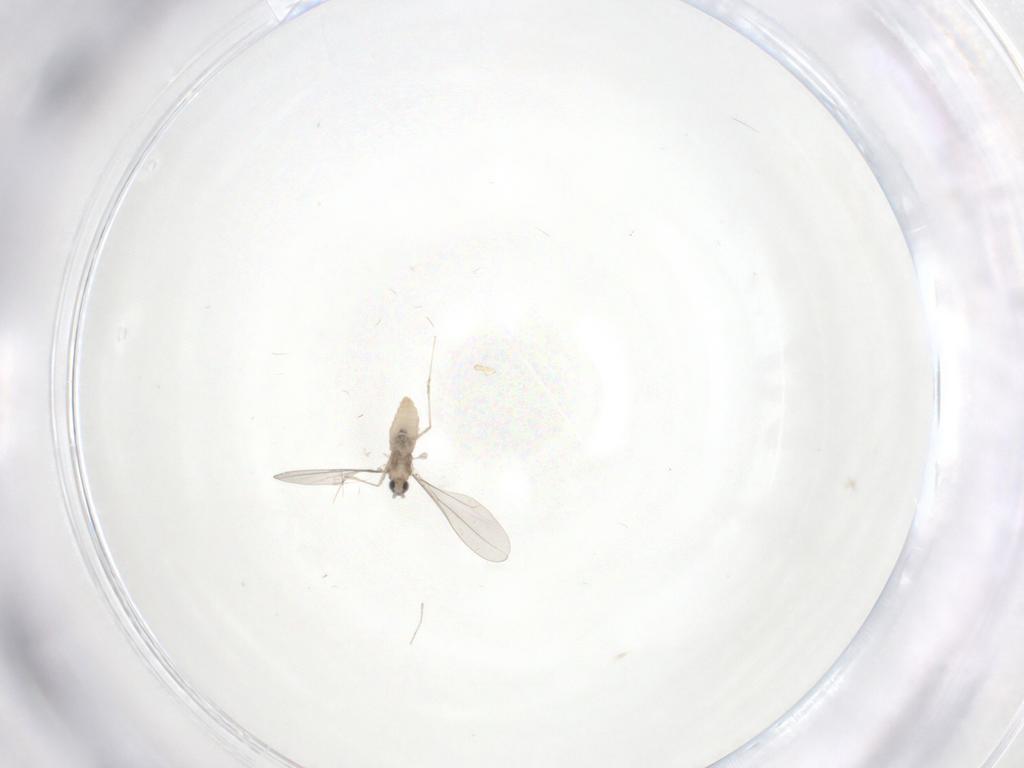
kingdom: Animalia
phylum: Arthropoda
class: Insecta
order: Diptera
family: Cecidomyiidae
